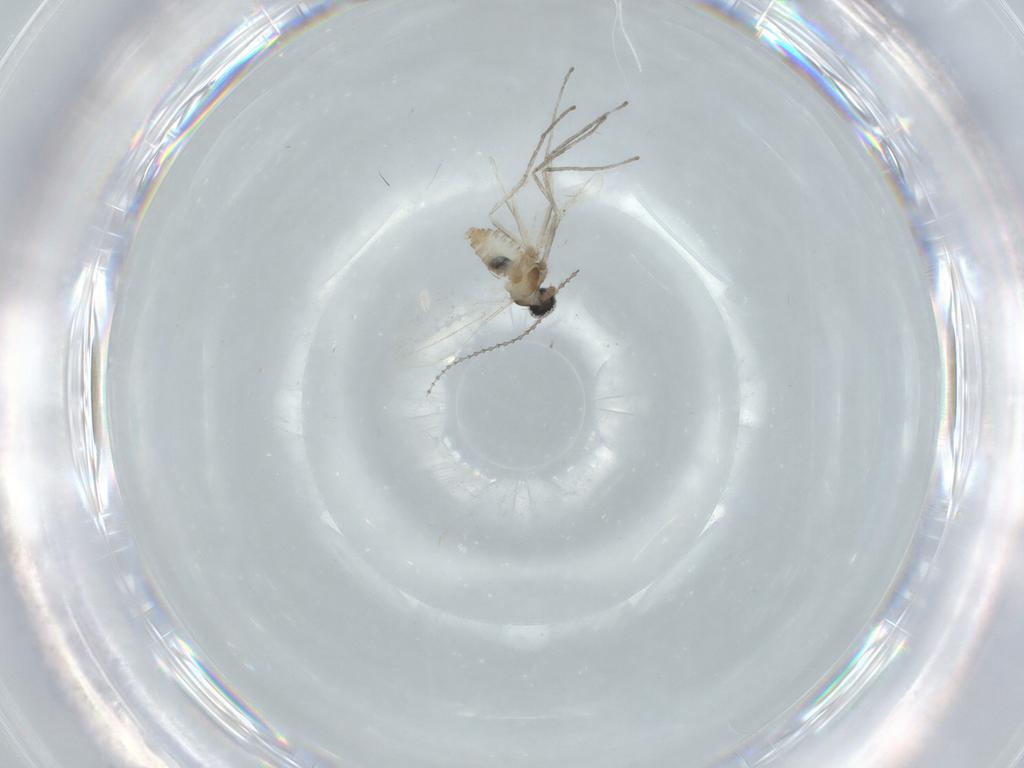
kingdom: Animalia
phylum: Arthropoda
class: Insecta
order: Diptera
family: Cecidomyiidae
